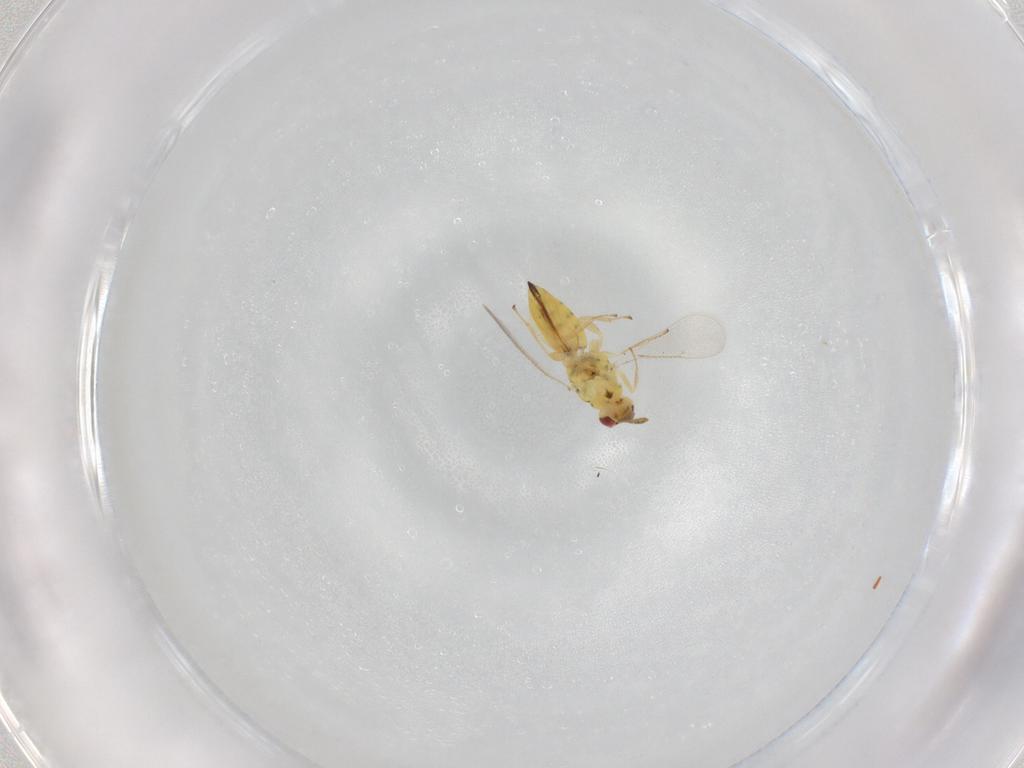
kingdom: Animalia
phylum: Arthropoda
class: Insecta
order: Hymenoptera
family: Eulophidae
